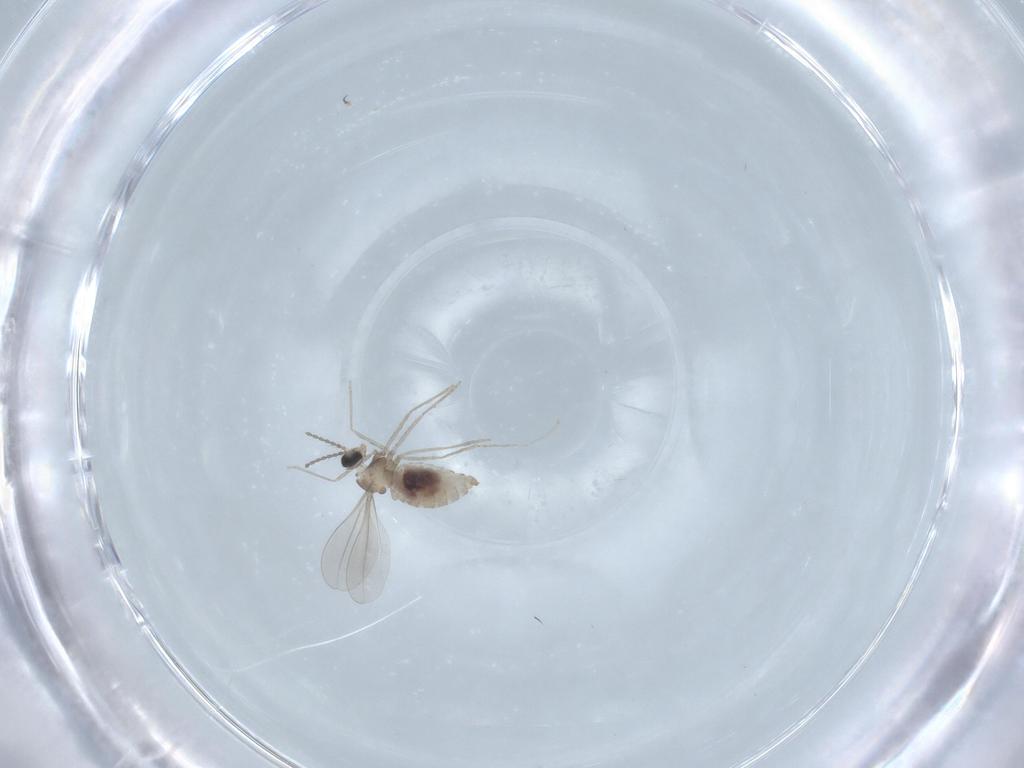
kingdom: Animalia
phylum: Arthropoda
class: Insecta
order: Diptera
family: Cecidomyiidae
